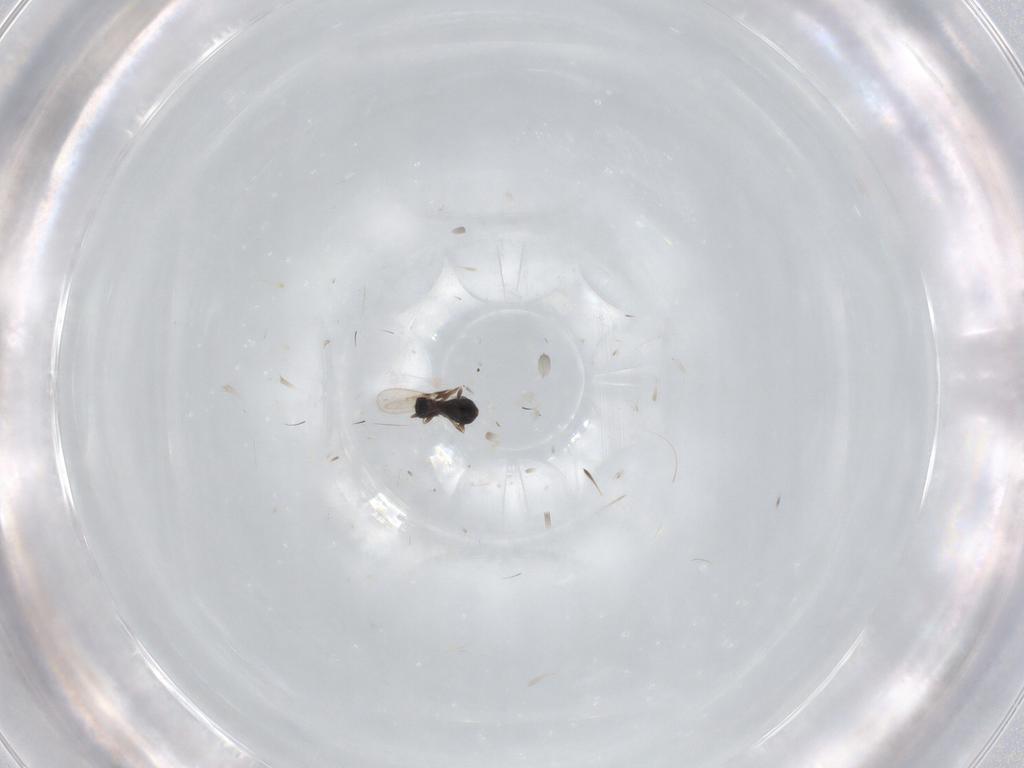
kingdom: Animalia
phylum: Arthropoda
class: Insecta
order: Hymenoptera
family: Scelionidae
